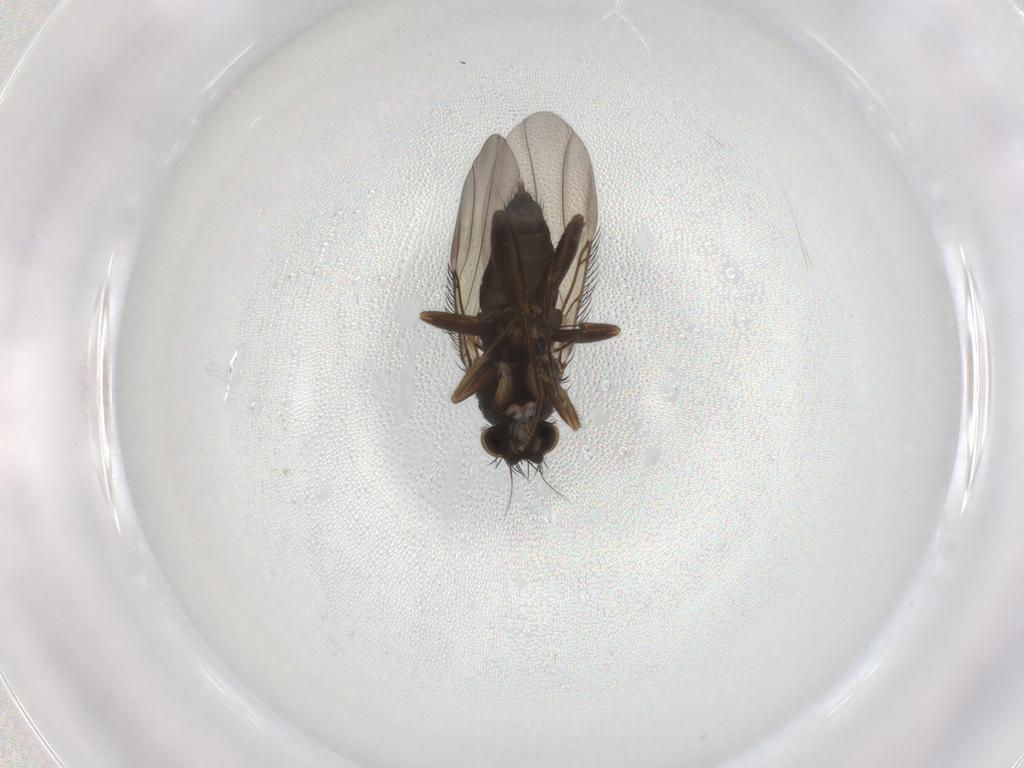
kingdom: Animalia
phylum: Arthropoda
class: Insecta
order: Diptera
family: Phoridae
